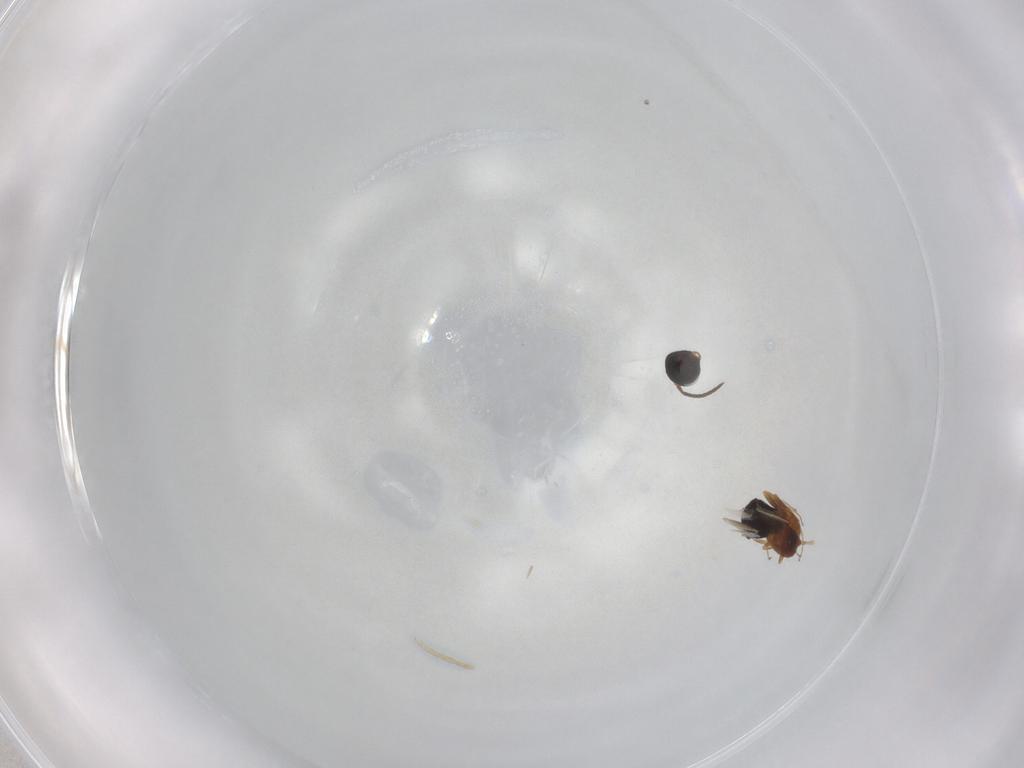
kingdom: Animalia
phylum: Arthropoda
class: Insecta
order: Hymenoptera
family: Scelionidae
